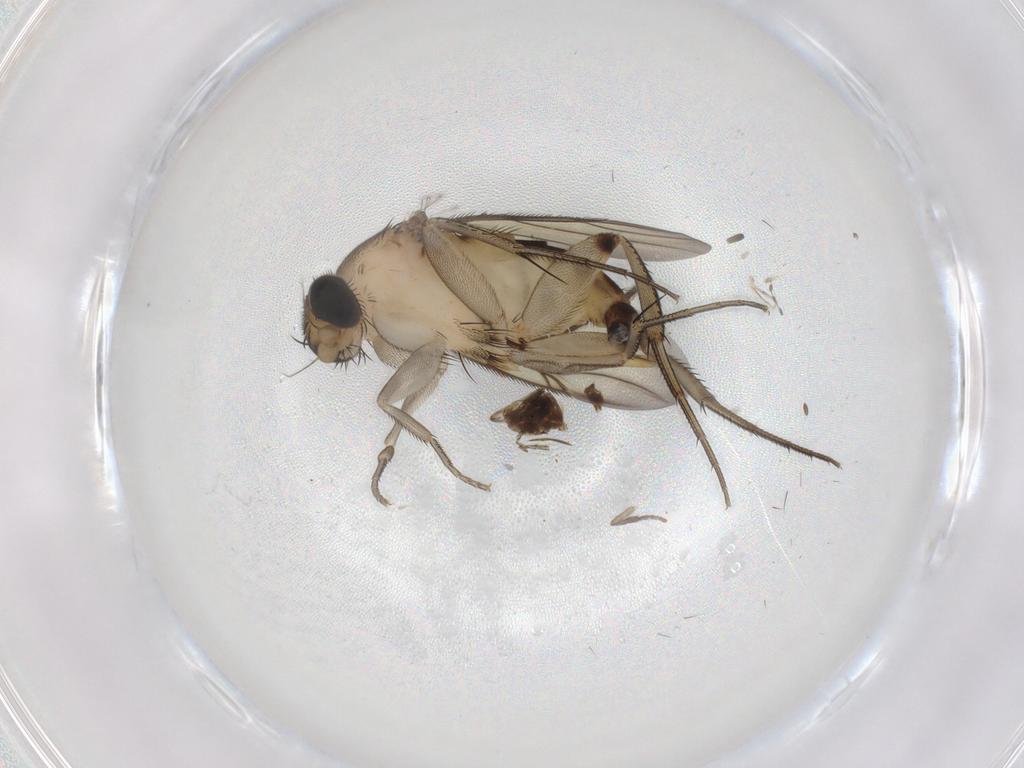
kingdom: Animalia
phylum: Arthropoda
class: Insecta
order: Diptera
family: Phoridae
